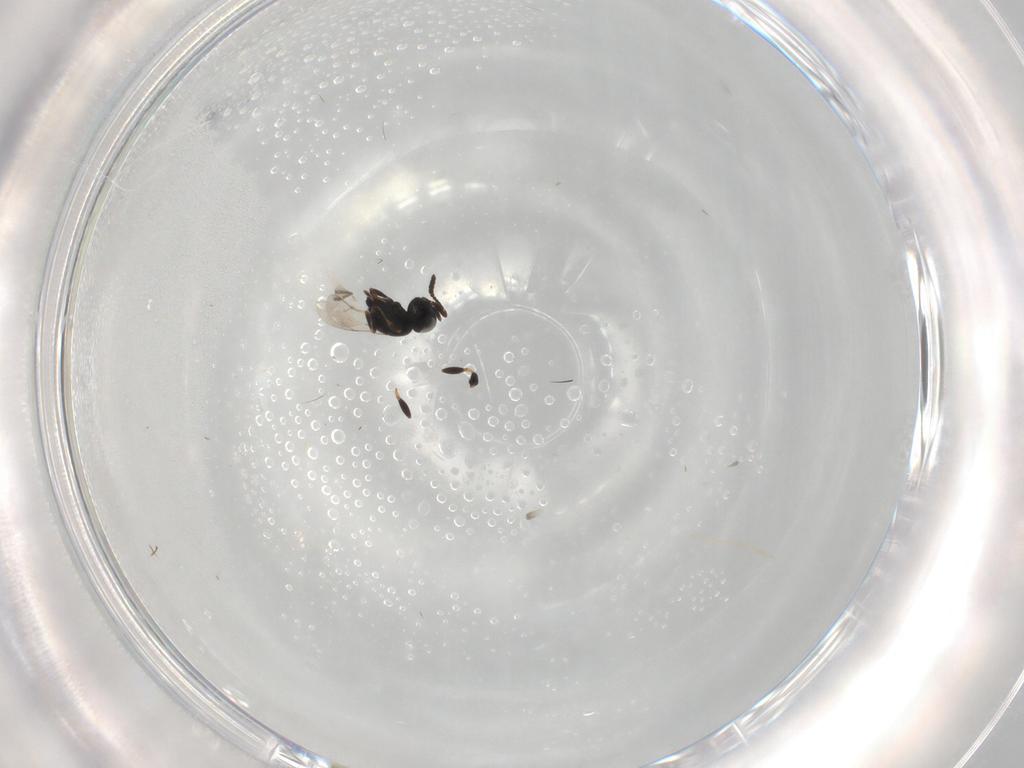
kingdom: Animalia
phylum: Arthropoda
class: Insecta
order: Hymenoptera
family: Scelionidae
